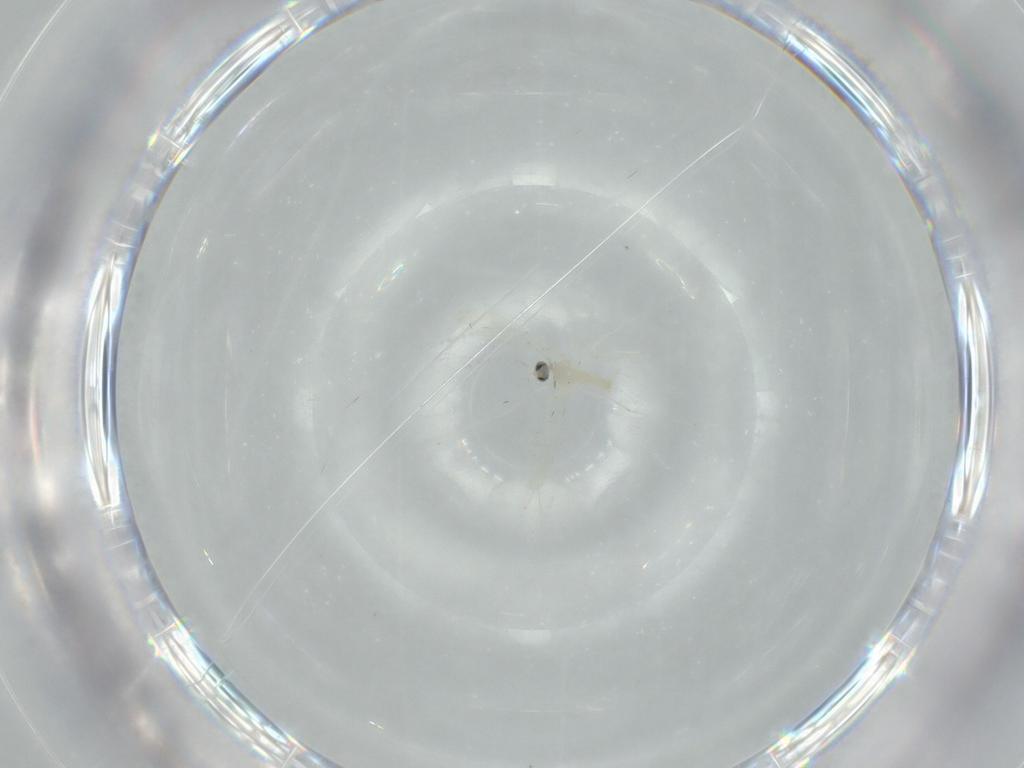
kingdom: Animalia
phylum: Arthropoda
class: Insecta
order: Diptera
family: Cecidomyiidae
